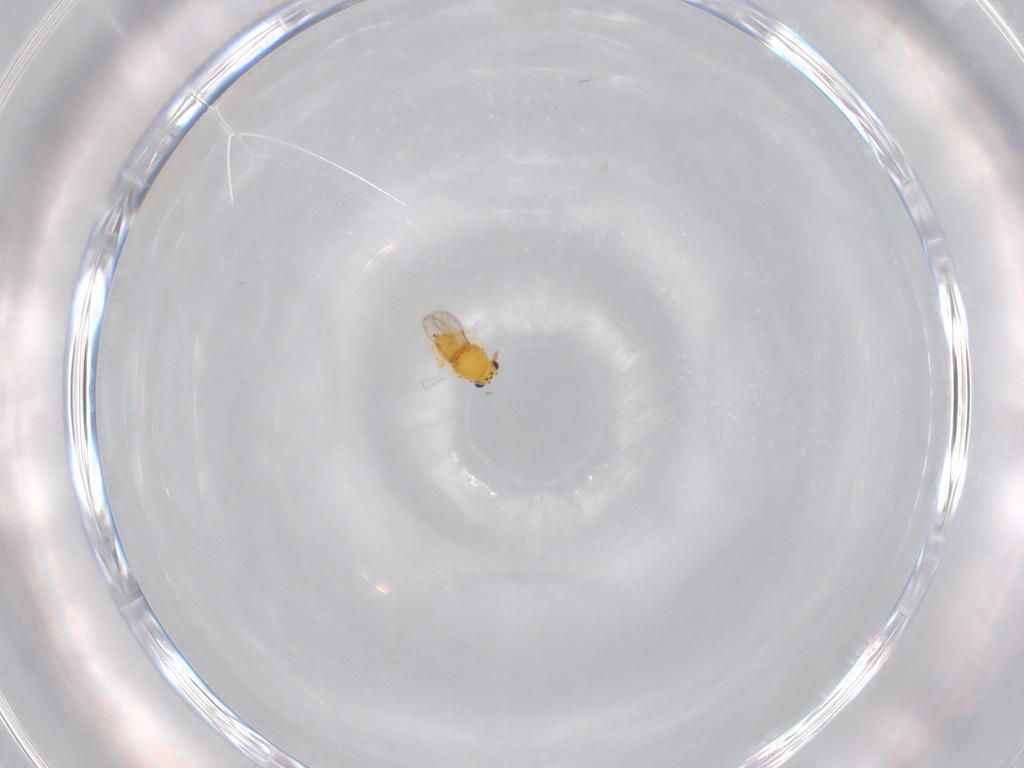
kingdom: Animalia
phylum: Arthropoda
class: Insecta
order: Hymenoptera
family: Aphelinidae
